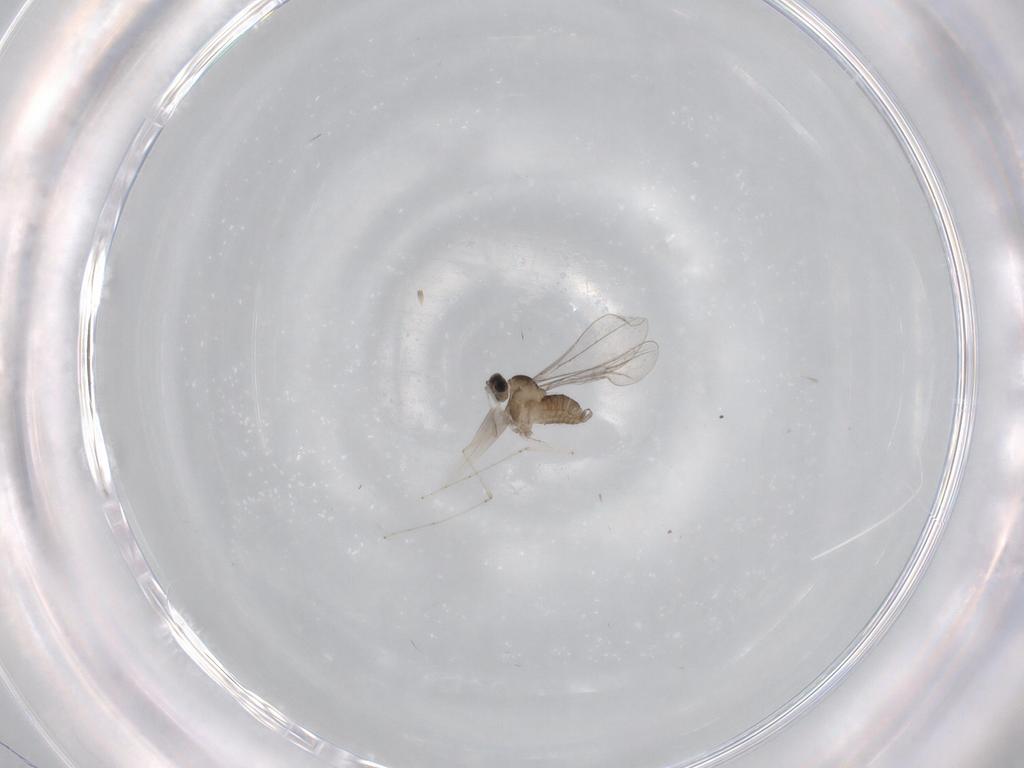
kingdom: Animalia
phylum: Arthropoda
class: Insecta
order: Diptera
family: Cecidomyiidae
